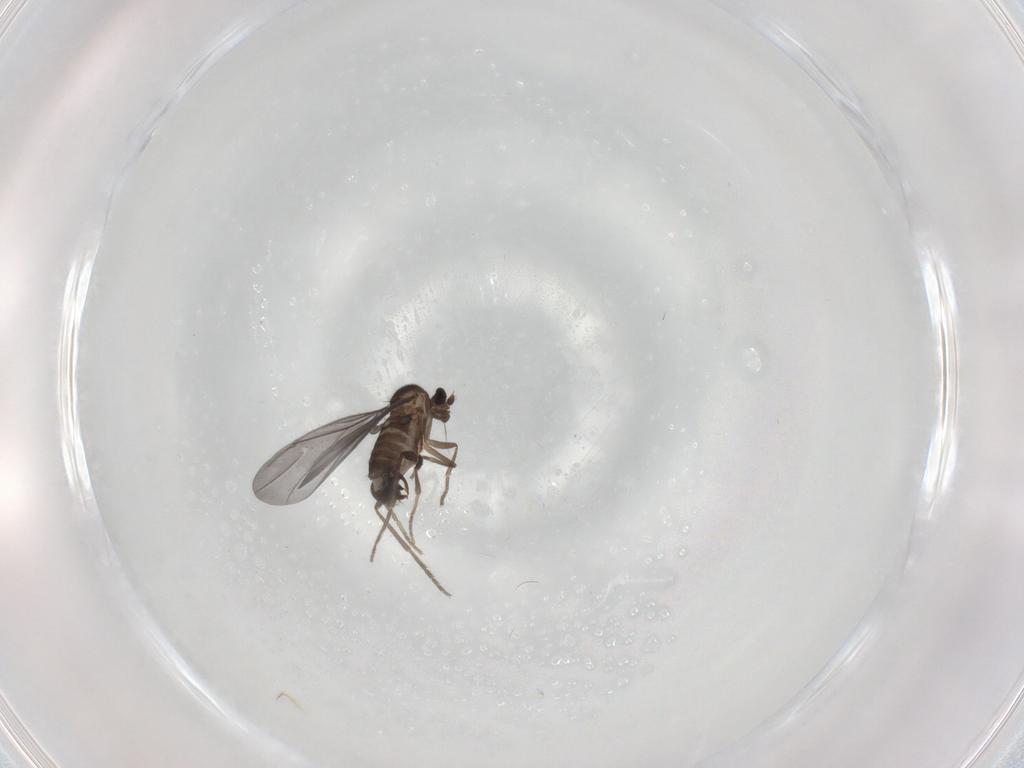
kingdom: Animalia
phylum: Arthropoda
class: Insecta
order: Diptera
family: Phoridae
